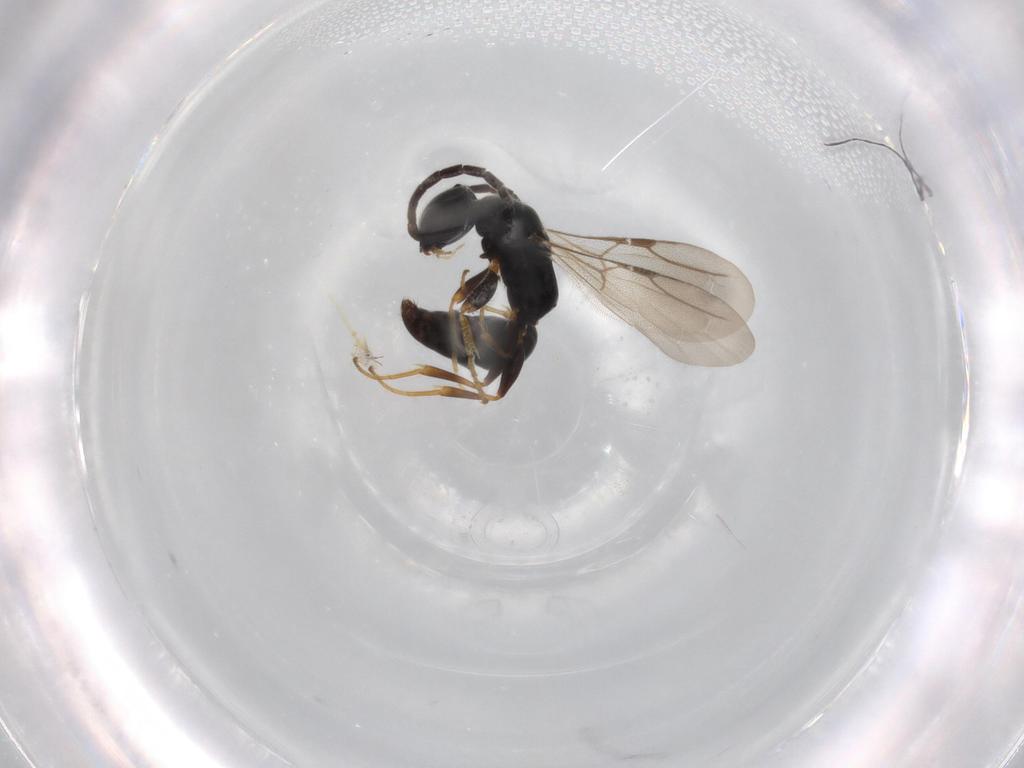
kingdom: Animalia
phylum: Arthropoda
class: Insecta
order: Hymenoptera
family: Bethylidae
